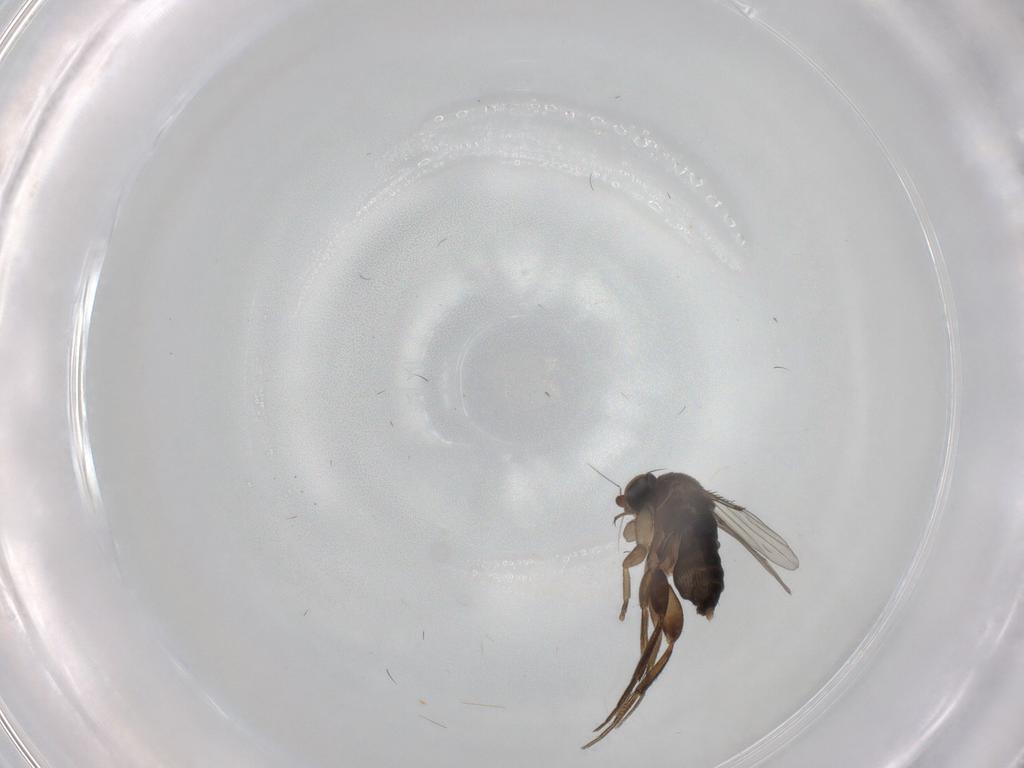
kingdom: Animalia
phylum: Arthropoda
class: Insecta
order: Diptera
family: Phoridae
